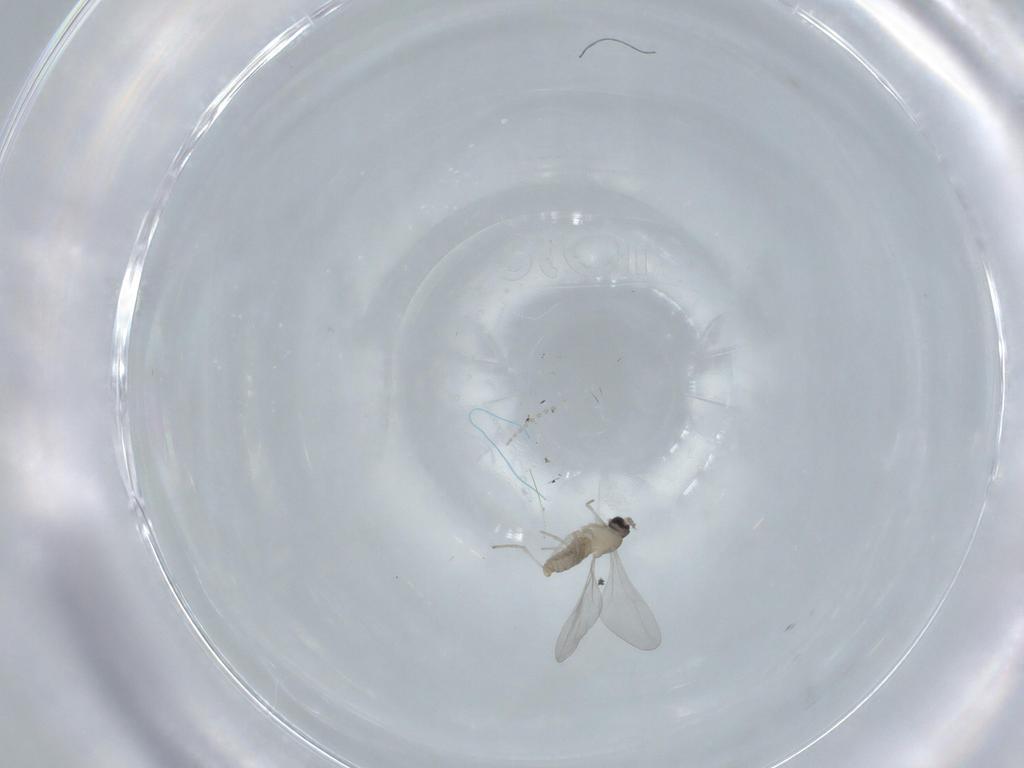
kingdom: Animalia
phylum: Arthropoda
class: Insecta
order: Diptera
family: Cecidomyiidae
